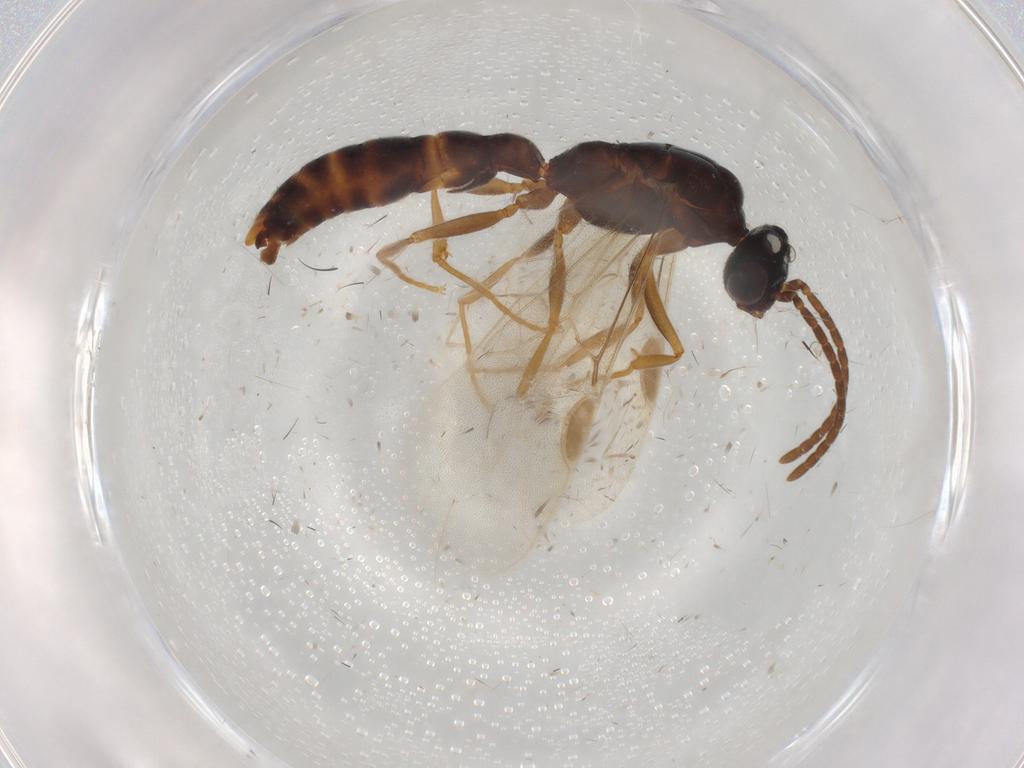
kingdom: Animalia
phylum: Arthropoda
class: Insecta
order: Hymenoptera
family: Formicidae
